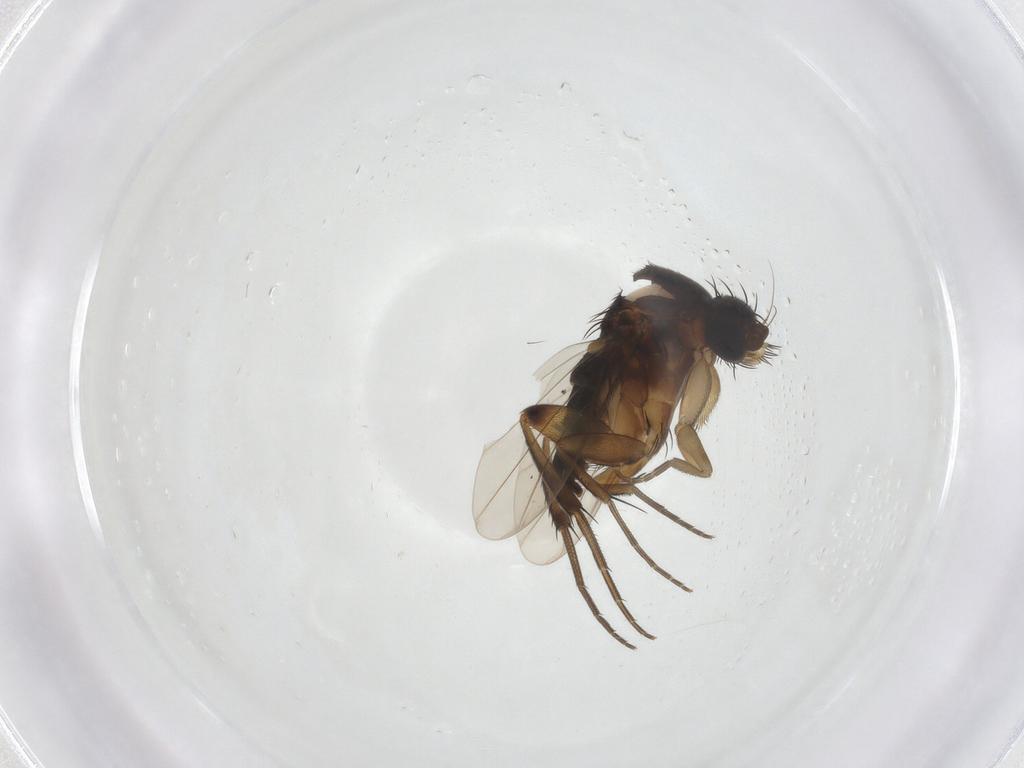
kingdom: Animalia
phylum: Arthropoda
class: Insecta
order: Diptera
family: Phoridae
